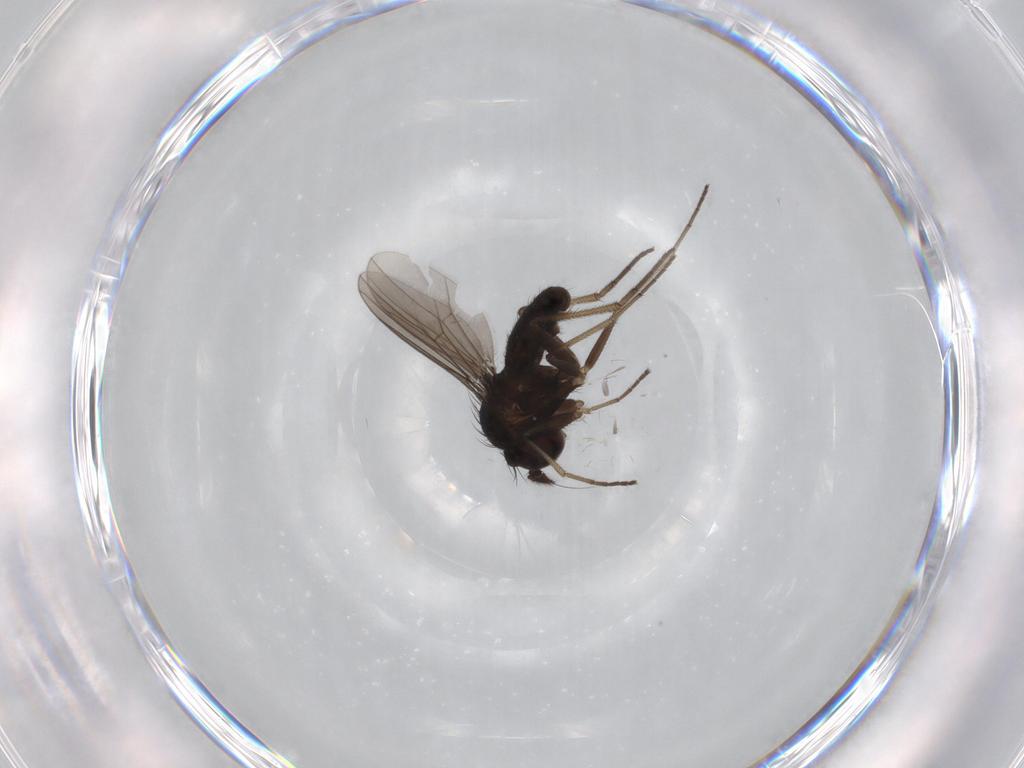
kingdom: Animalia
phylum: Arthropoda
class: Insecta
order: Diptera
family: Dolichopodidae
